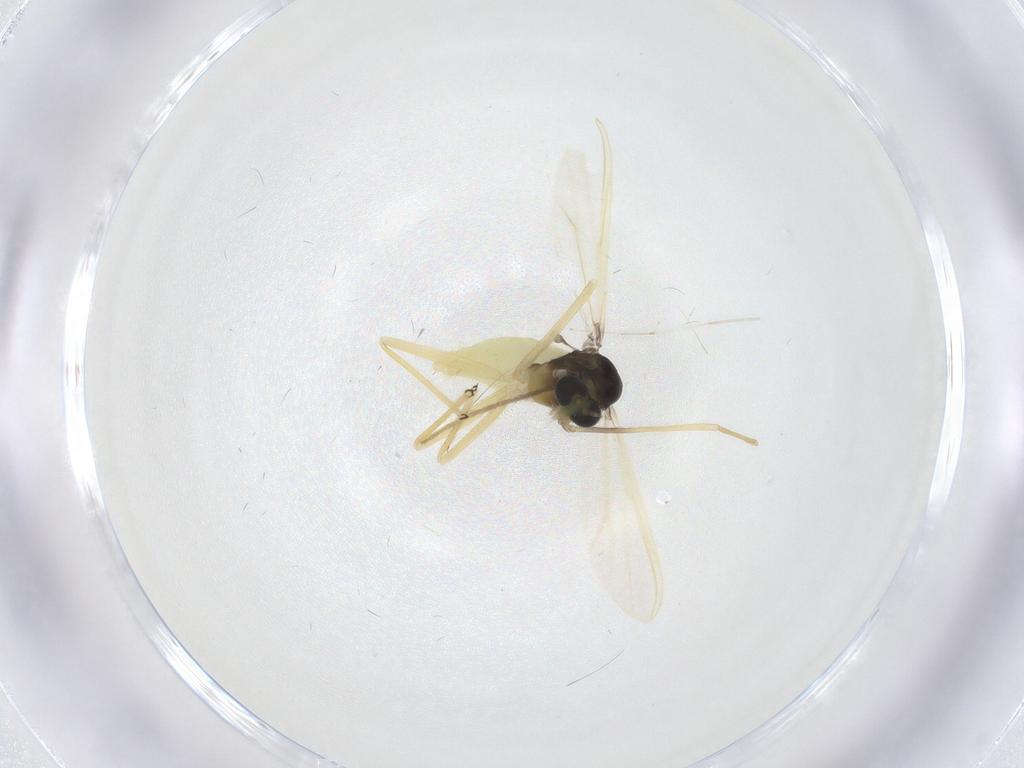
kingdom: Animalia
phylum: Arthropoda
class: Insecta
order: Diptera
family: Chironomidae
